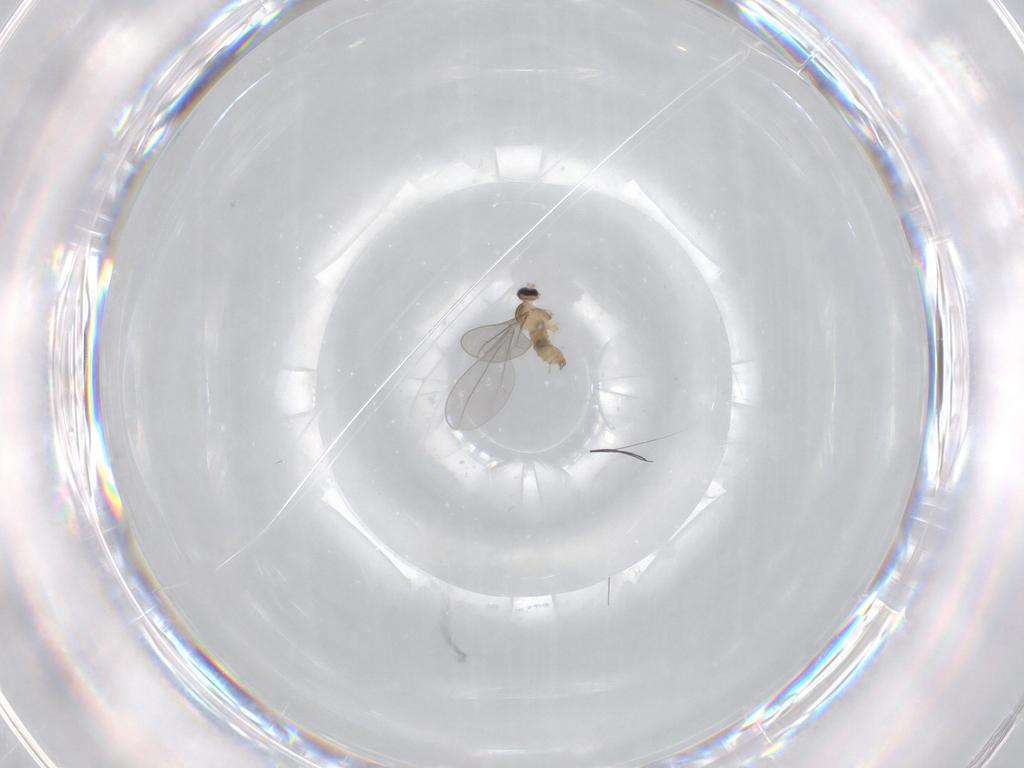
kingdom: Animalia
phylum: Arthropoda
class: Insecta
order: Diptera
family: Cecidomyiidae
